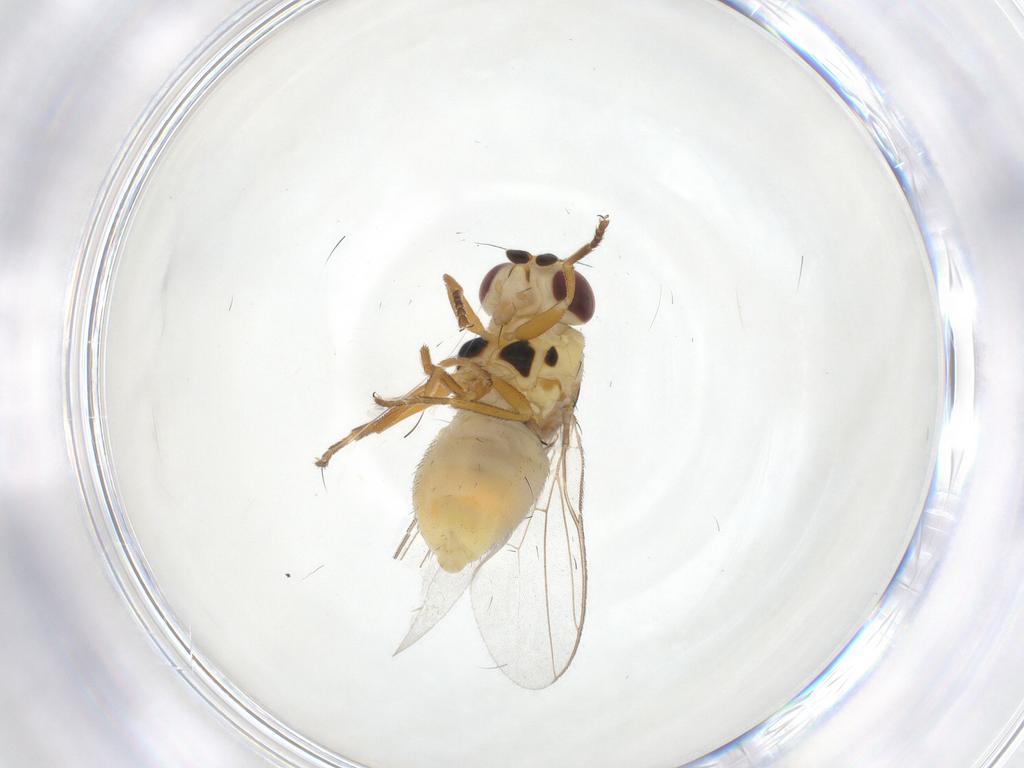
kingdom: Animalia
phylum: Arthropoda
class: Insecta
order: Diptera
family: Chloropidae
